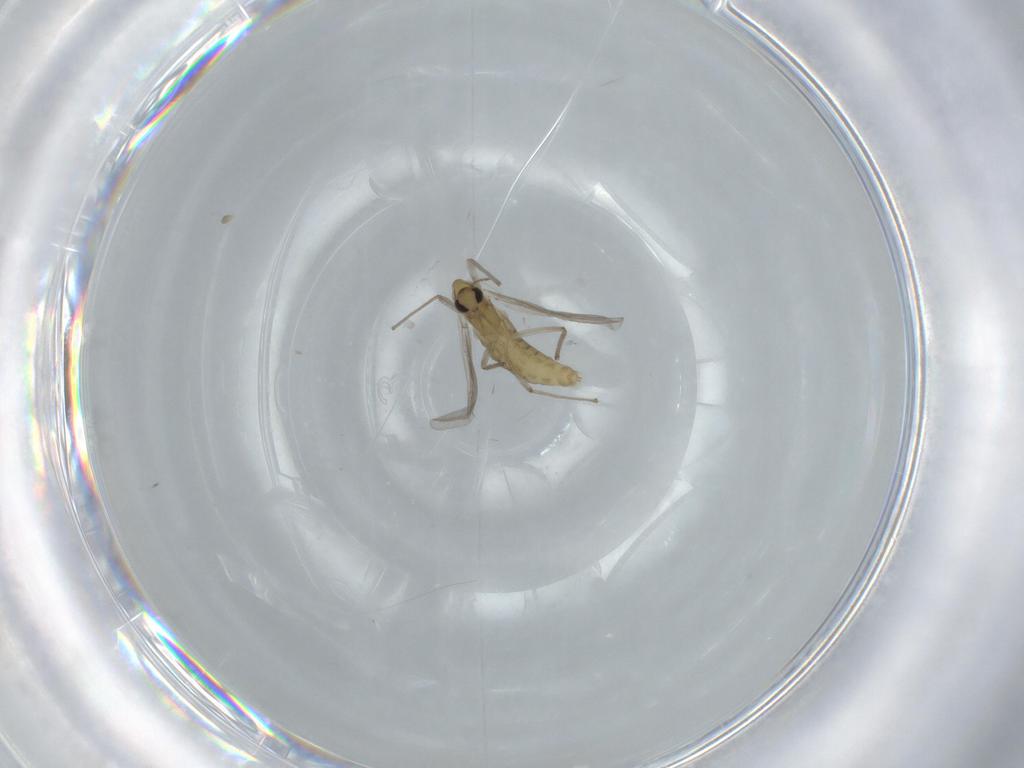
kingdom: Animalia
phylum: Arthropoda
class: Insecta
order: Diptera
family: Chironomidae
